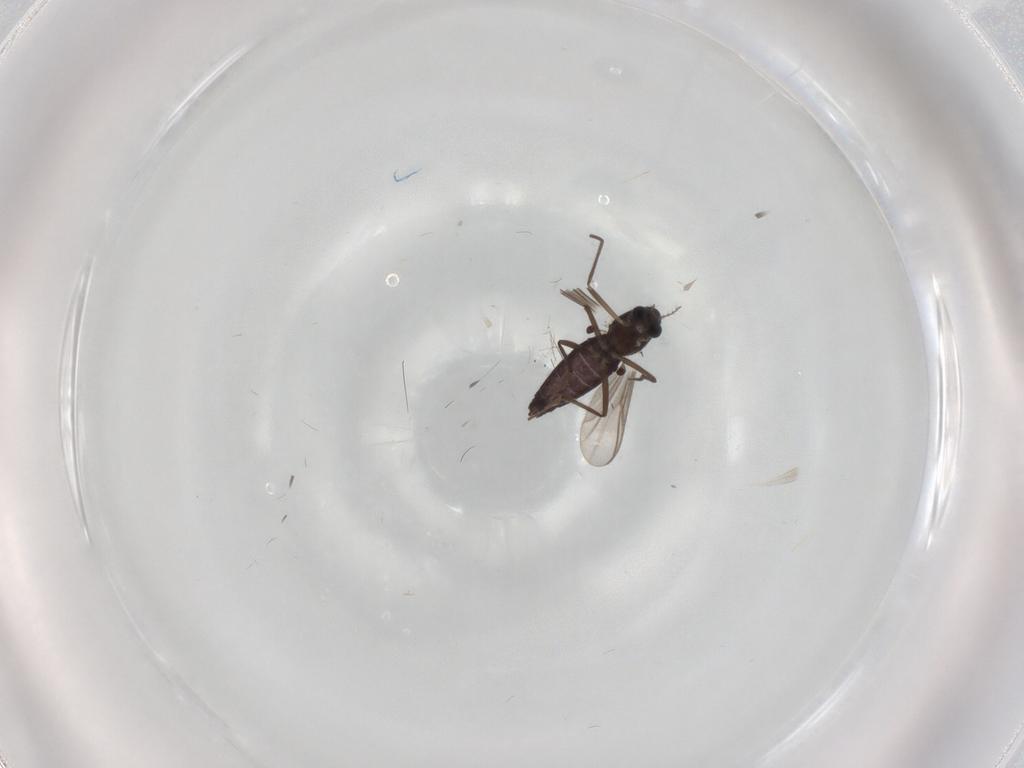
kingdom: Animalia
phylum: Arthropoda
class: Insecta
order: Diptera
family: Chironomidae
